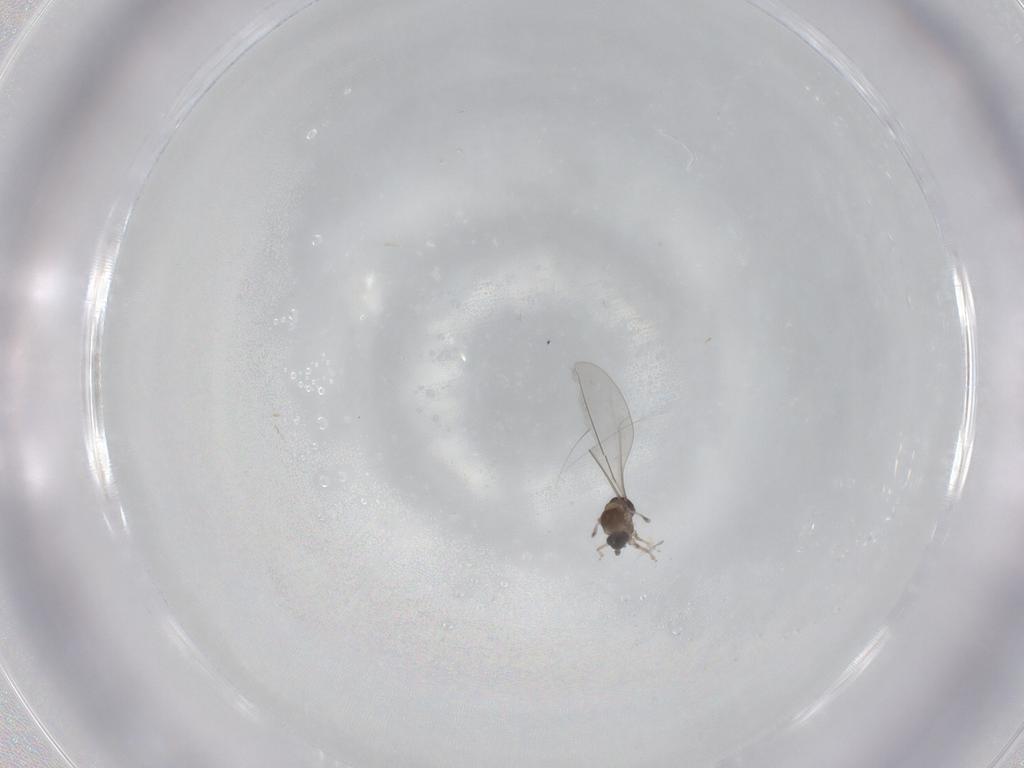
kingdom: Animalia
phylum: Arthropoda
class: Insecta
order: Diptera
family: Cecidomyiidae
